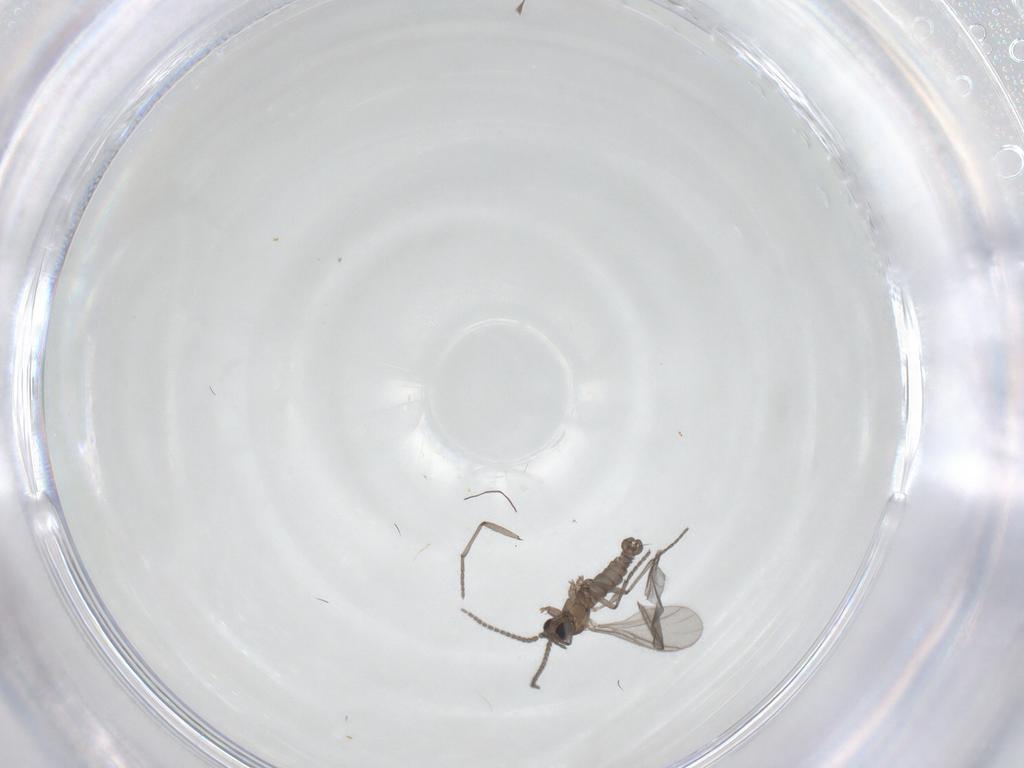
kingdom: Animalia
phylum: Arthropoda
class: Insecta
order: Diptera
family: Sciaridae
